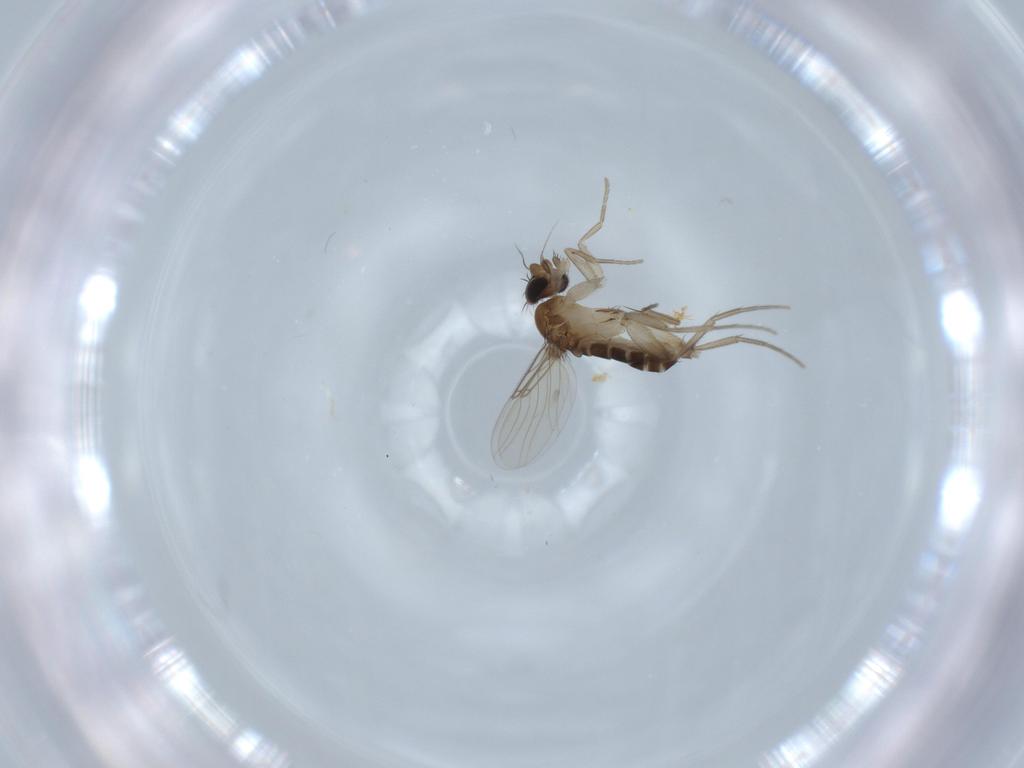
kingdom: Animalia
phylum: Arthropoda
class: Insecta
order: Diptera
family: Phoridae
